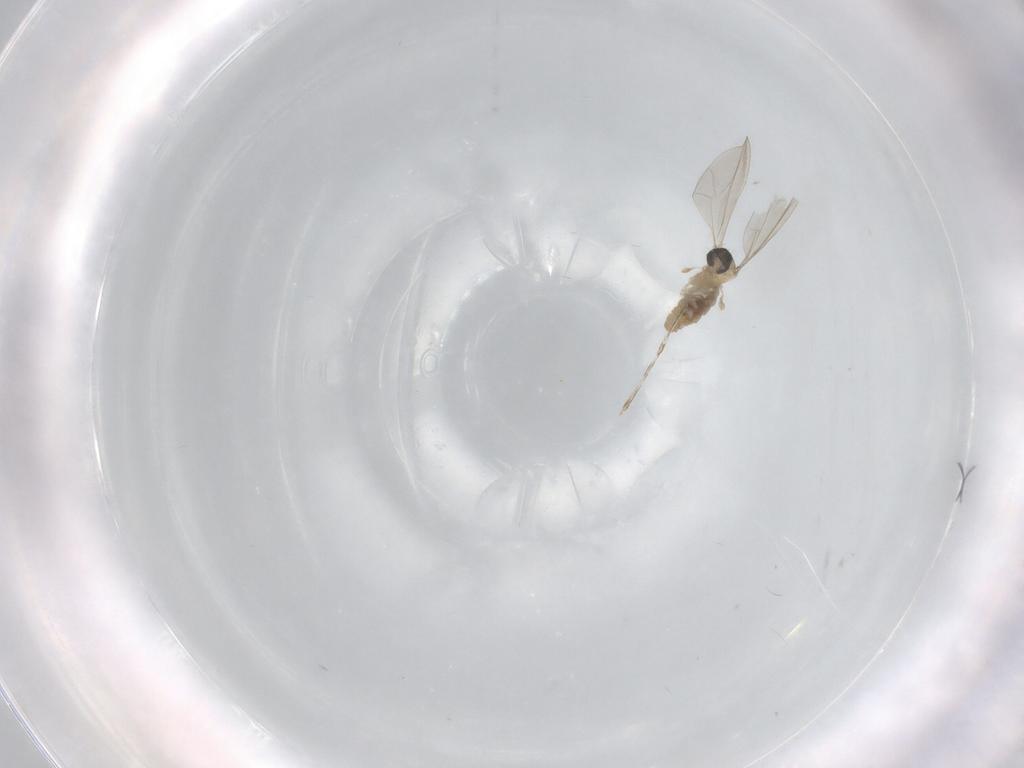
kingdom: Animalia
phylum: Arthropoda
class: Insecta
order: Diptera
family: Cecidomyiidae
